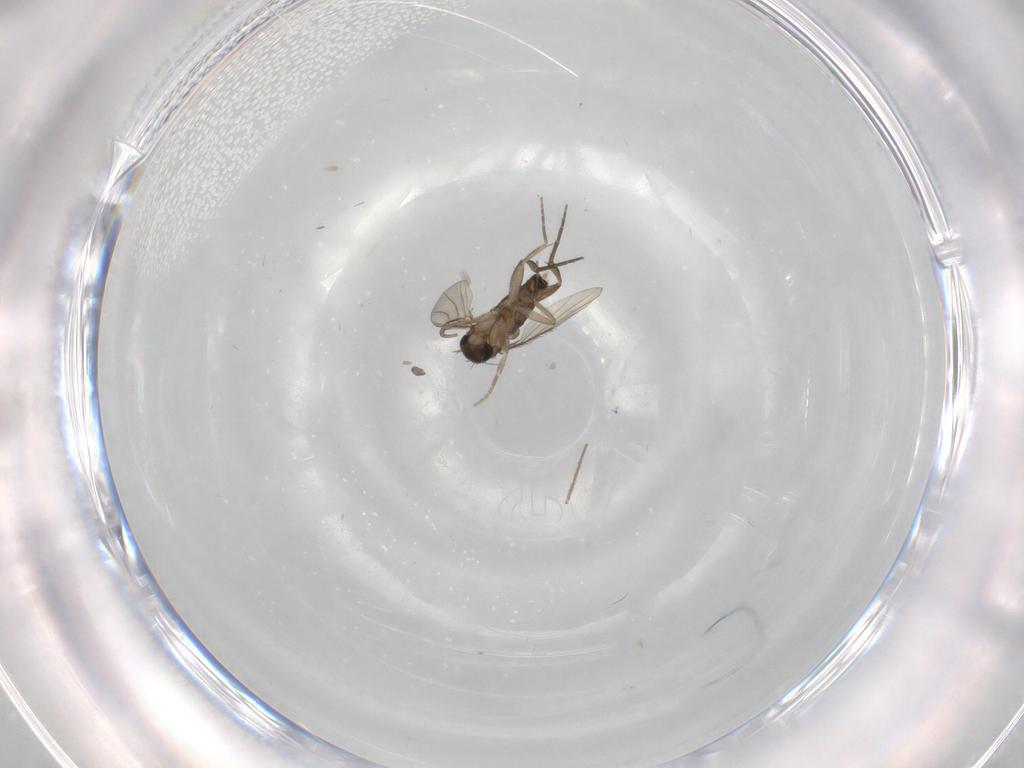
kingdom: Animalia
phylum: Arthropoda
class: Insecta
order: Diptera
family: Phoridae
